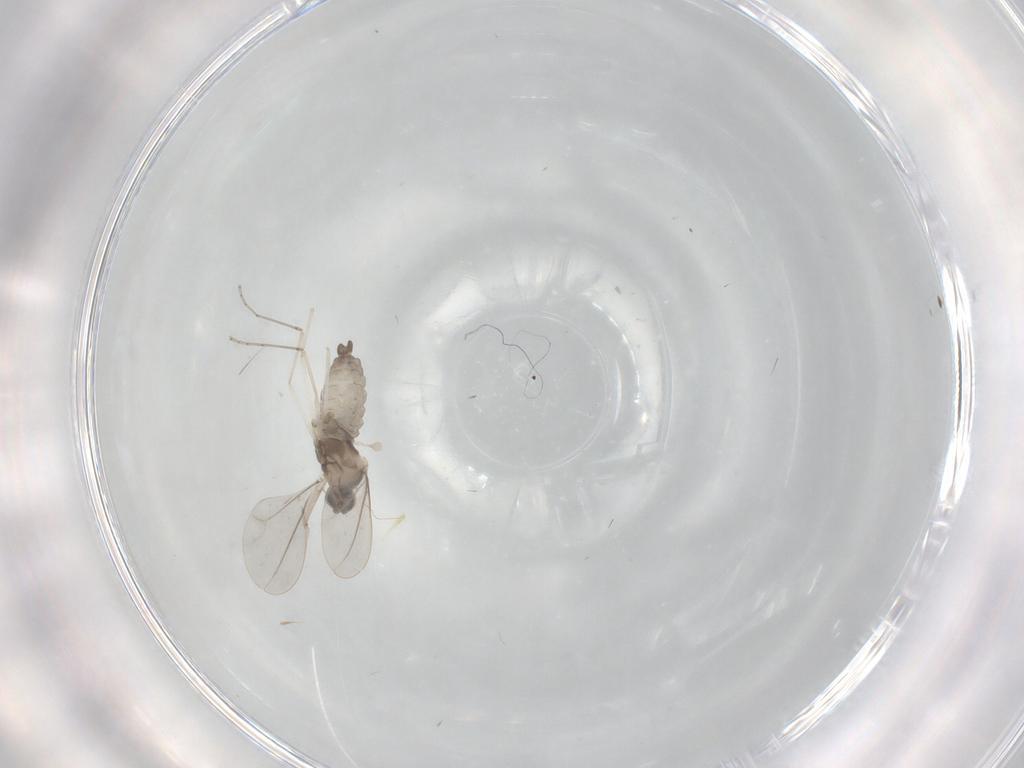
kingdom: Animalia
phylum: Arthropoda
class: Insecta
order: Diptera
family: Cecidomyiidae
